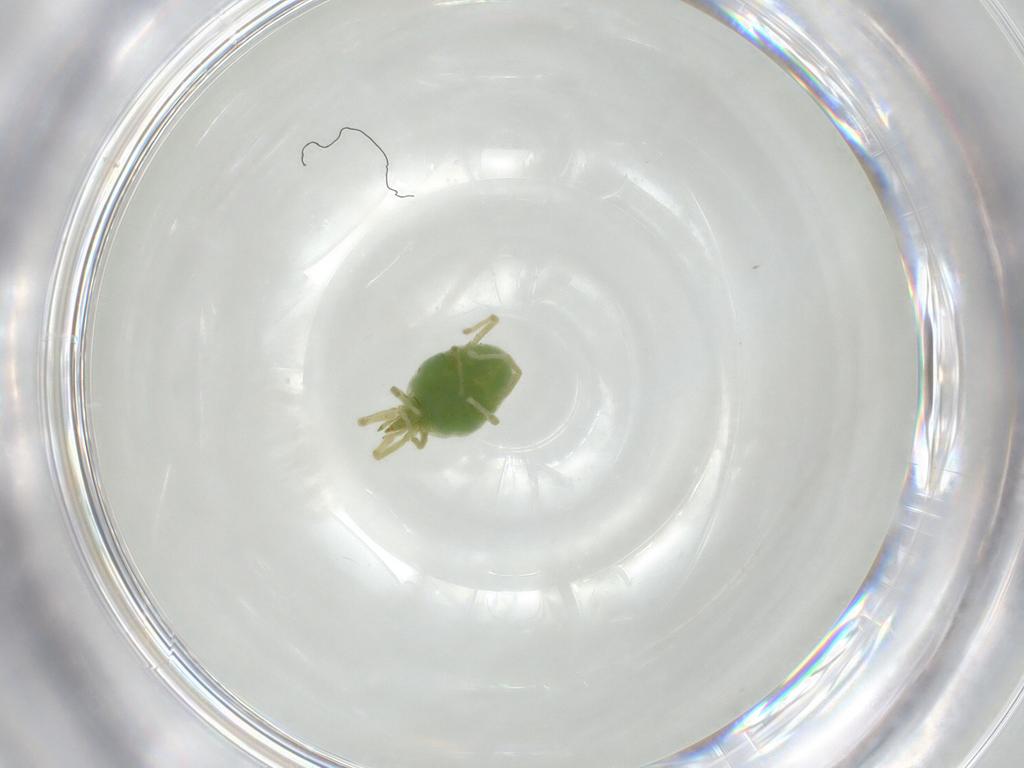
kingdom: Animalia
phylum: Arthropoda
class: Arachnida
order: Trombidiformes
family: Erythraeidae
